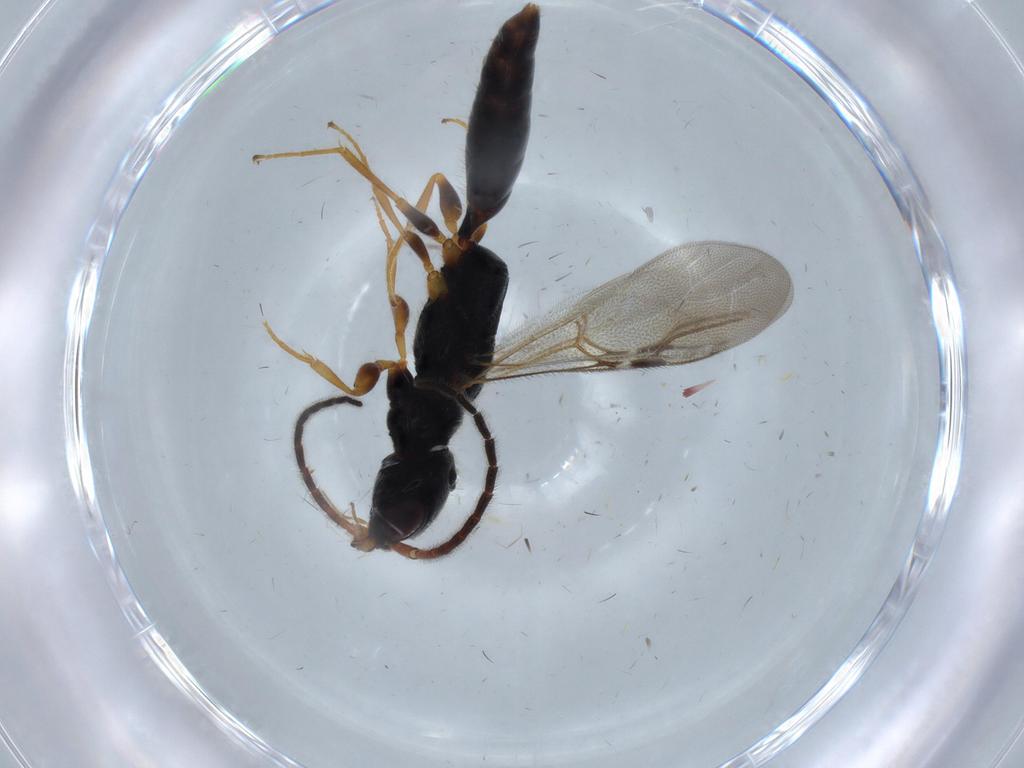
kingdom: Animalia
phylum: Arthropoda
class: Insecta
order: Hymenoptera
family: Bethylidae
